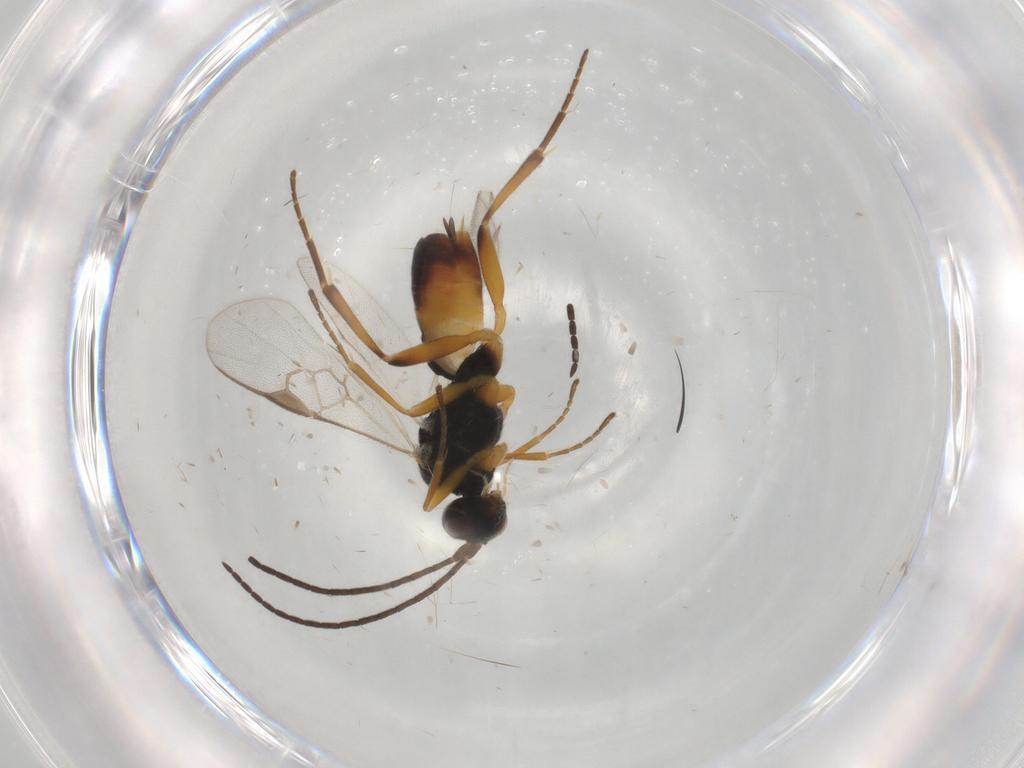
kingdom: Animalia
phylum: Arthropoda
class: Insecta
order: Hymenoptera
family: Braconidae
